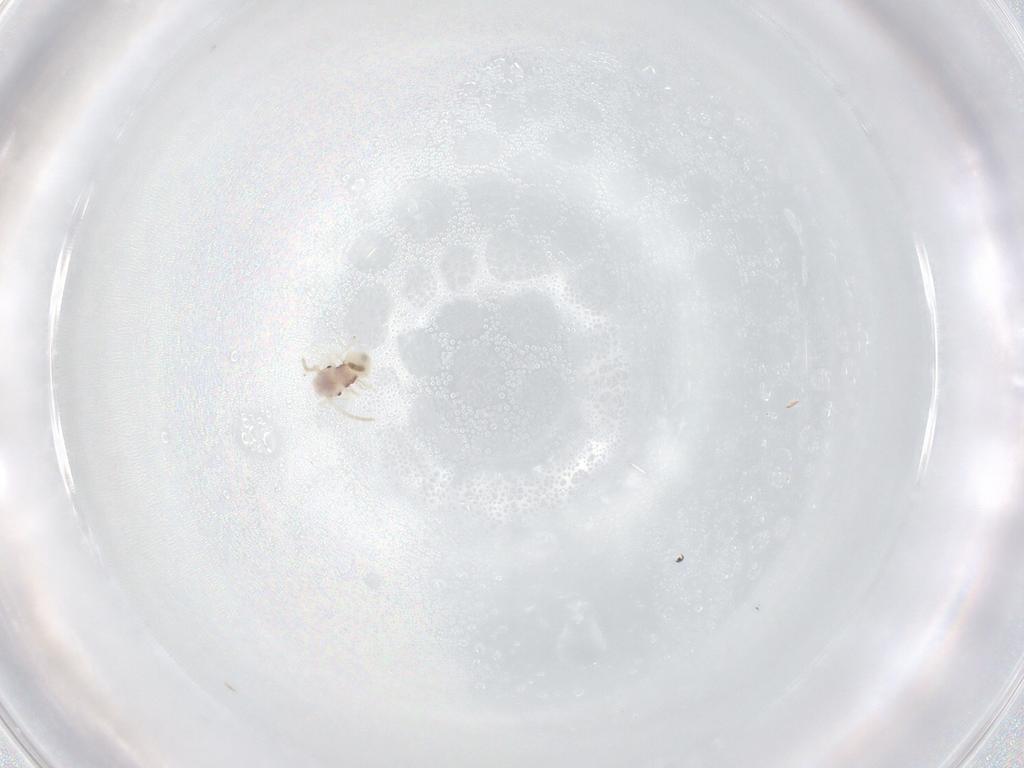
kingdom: Animalia
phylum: Arthropoda
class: Insecta
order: Psocodea
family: Amphipsocidae
